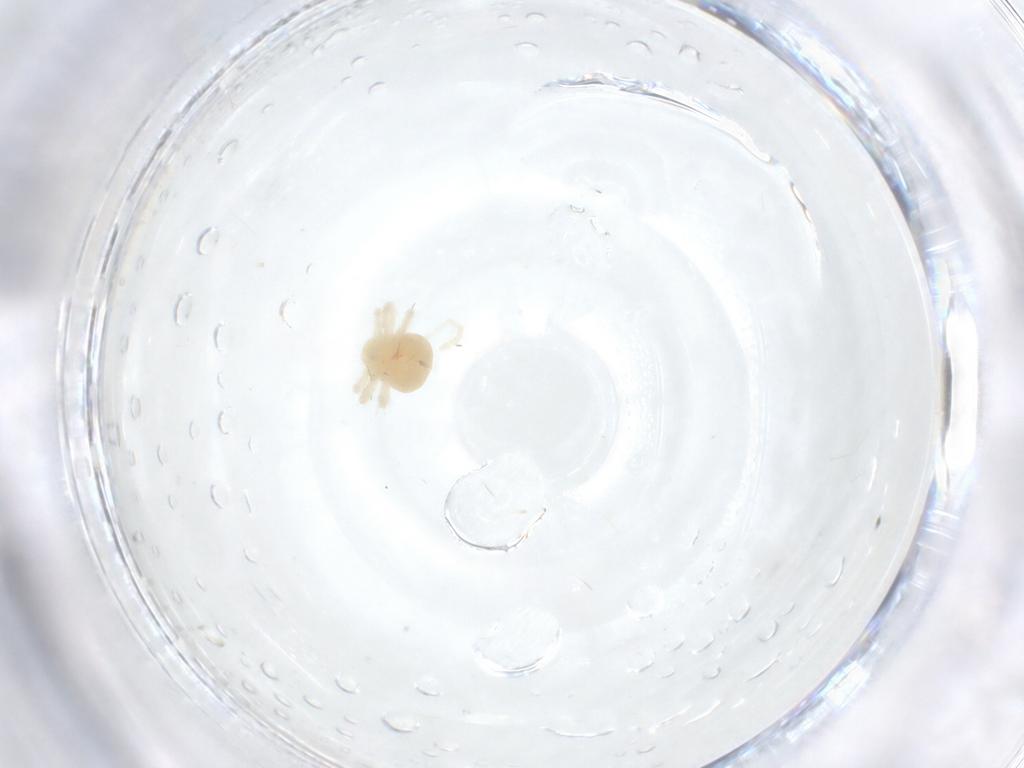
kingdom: Animalia
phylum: Arthropoda
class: Arachnida
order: Trombidiformes
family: Anystidae
